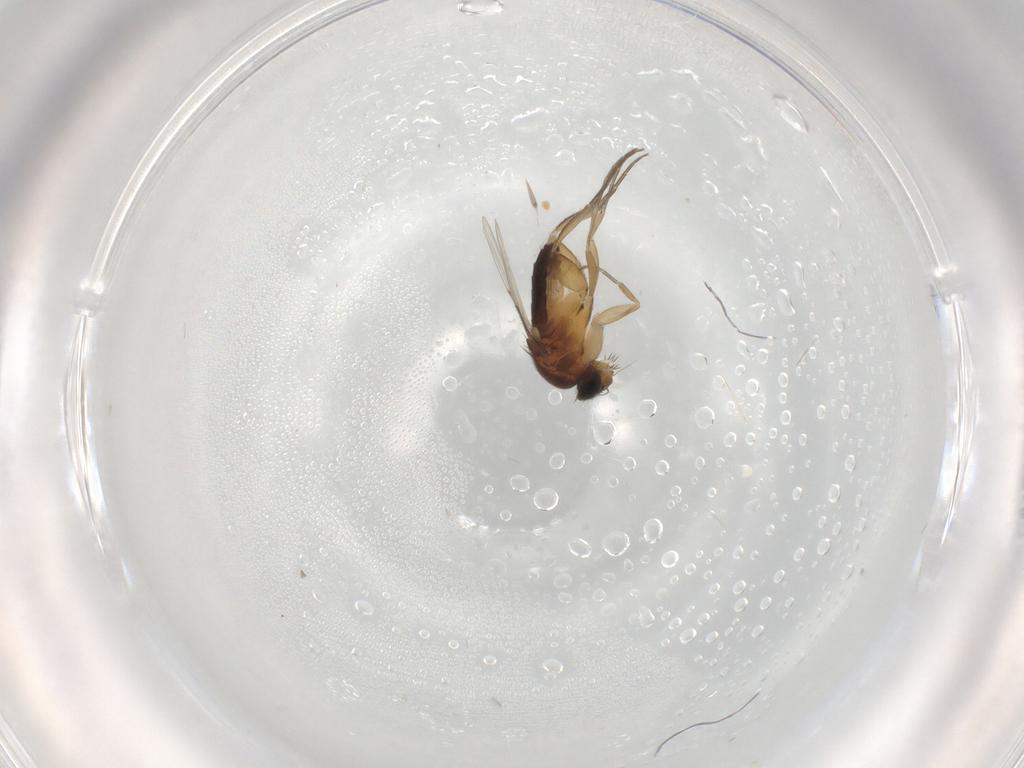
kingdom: Animalia
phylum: Arthropoda
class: Insecta
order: Diptera
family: Phoridae
